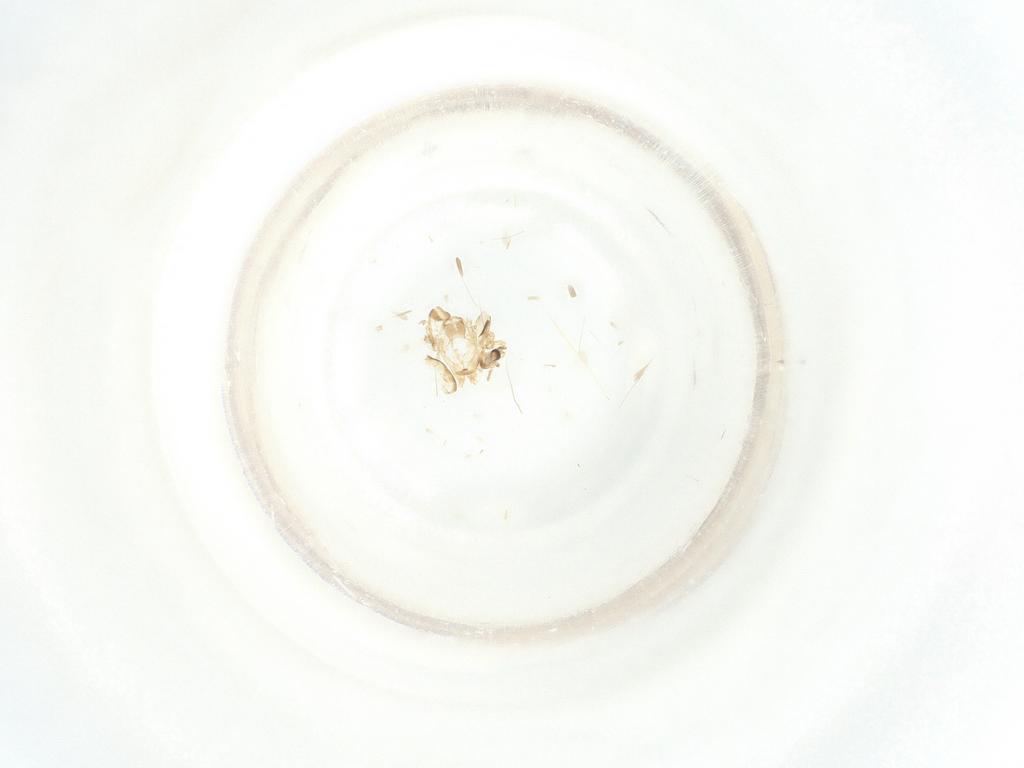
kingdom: Animalia
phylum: Arthropoda
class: Insecta
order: Diptera
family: Chironomidae
